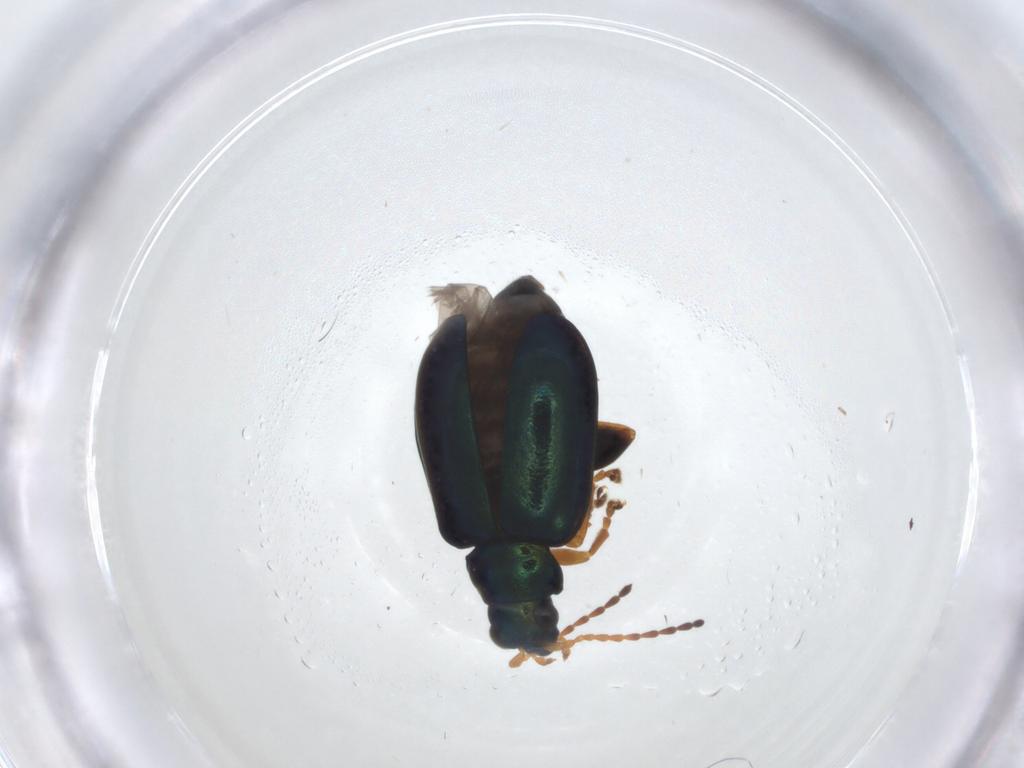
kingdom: Animalia
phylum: Arthropoda
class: Insecta
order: Coleoptera
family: Chrysomelidae
